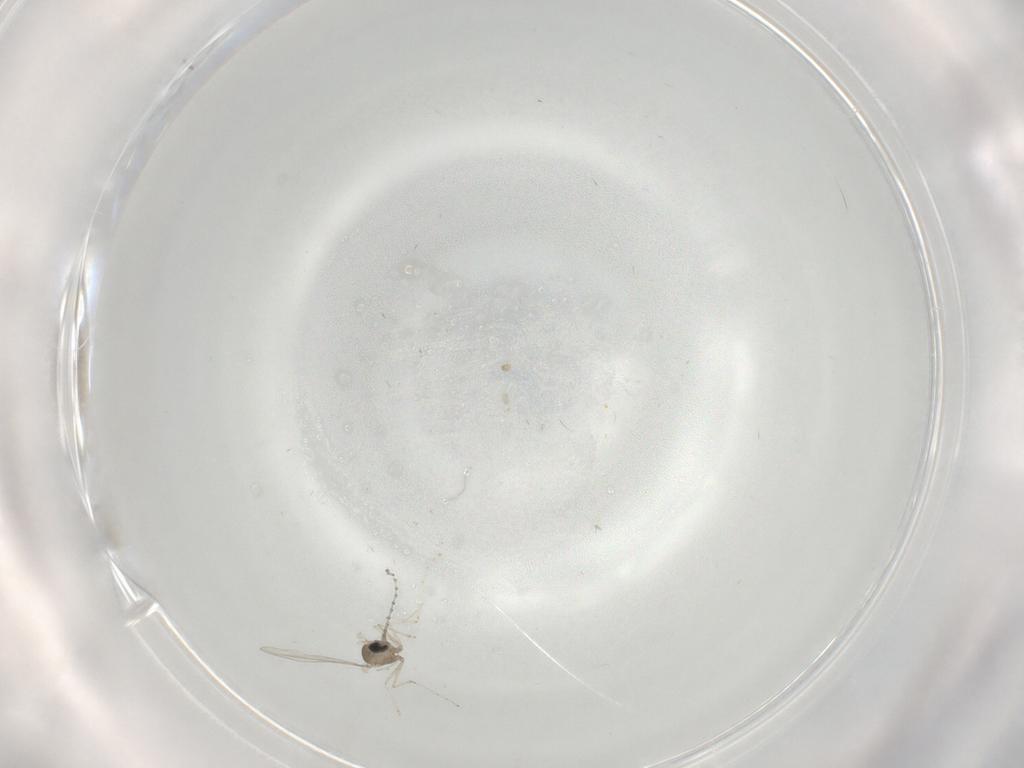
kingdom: Animalia
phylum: Arthropoda
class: Insecta
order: Diptera
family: Cecidomyiidae
